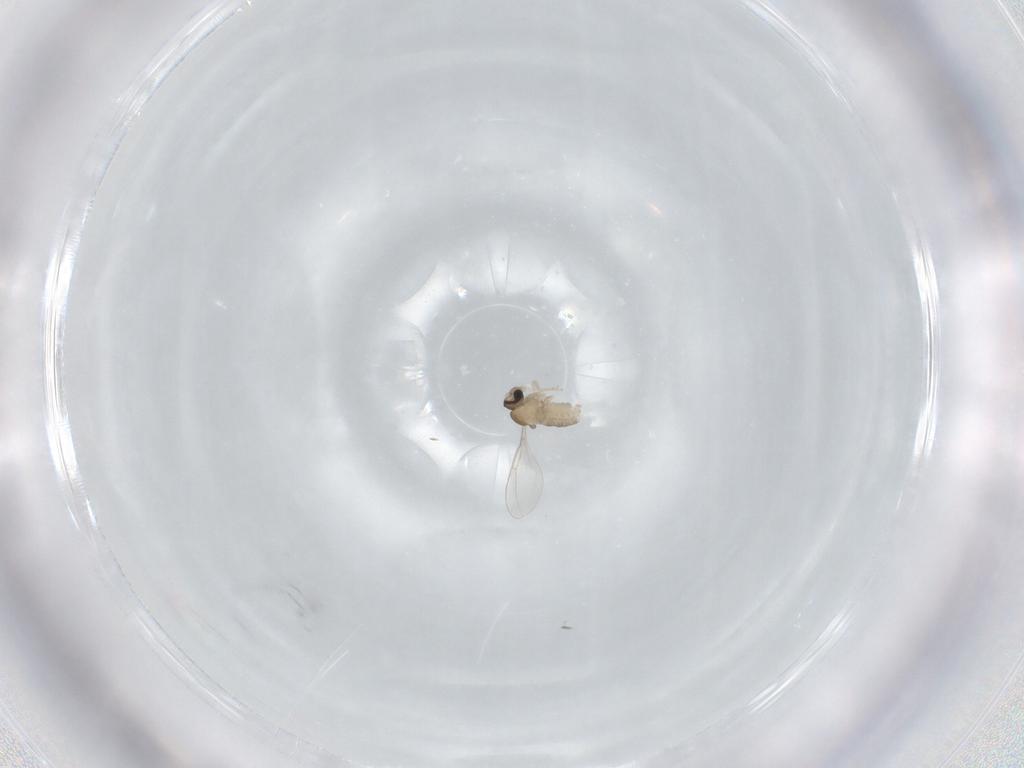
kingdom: Animalia
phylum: Arthropoda
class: Insecta
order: Diptera
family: Cecidomyiidae
